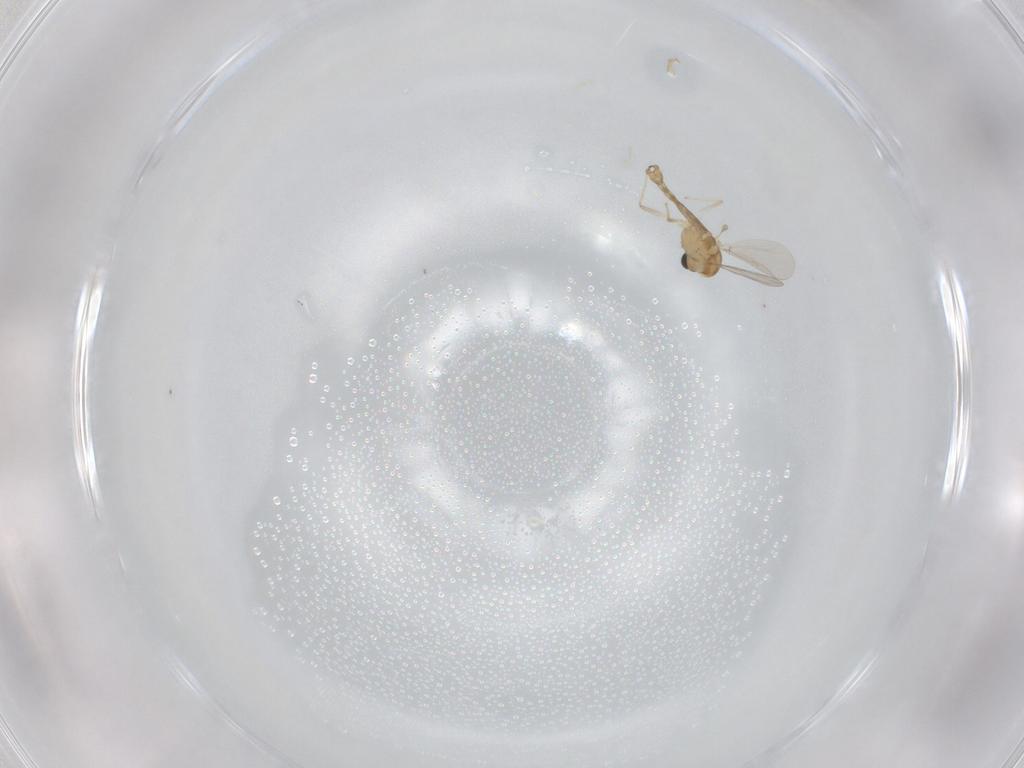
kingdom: Animalia
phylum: Arthropoda
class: Insecta
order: Diptera
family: Chironomidae
